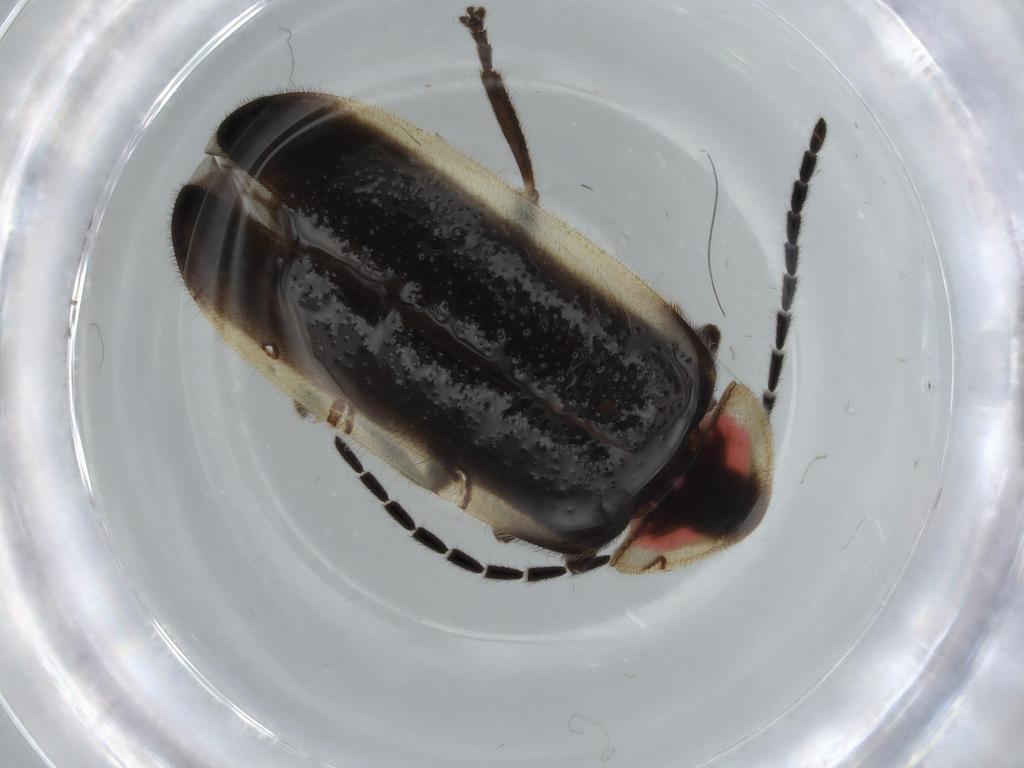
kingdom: Animalia
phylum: Arthropoda
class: Insecta
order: Coleoptera
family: Lampyridae
